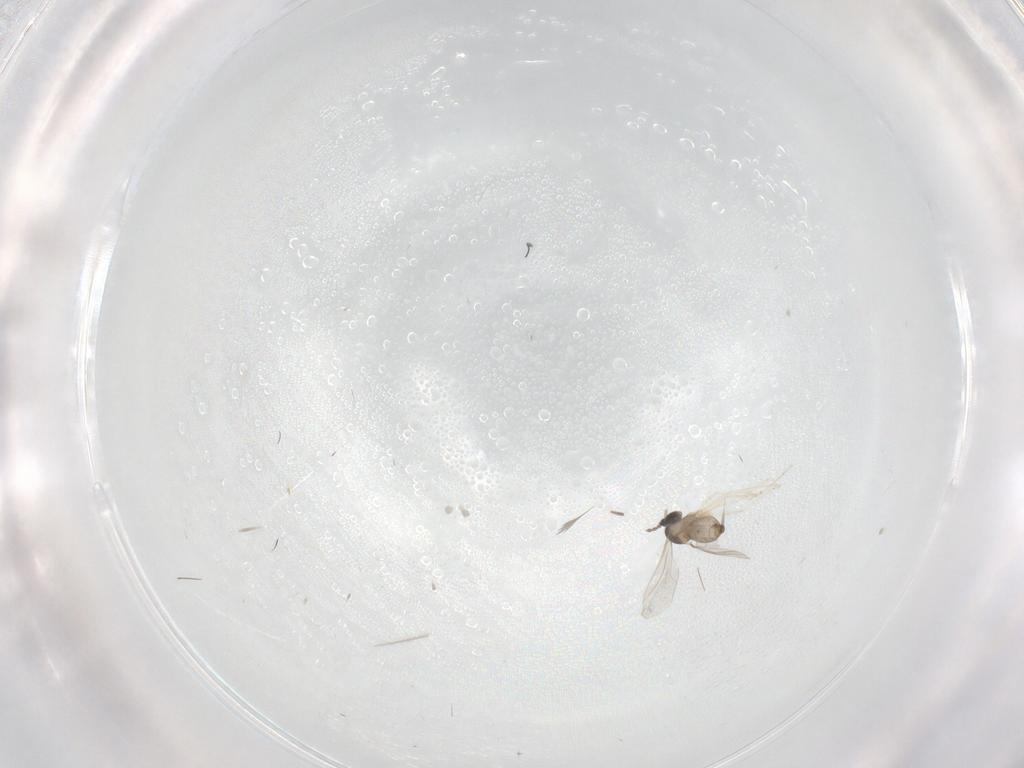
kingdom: Animalia
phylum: Arthropoda
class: Insecta
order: Diptera
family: Cecidomyiidae
